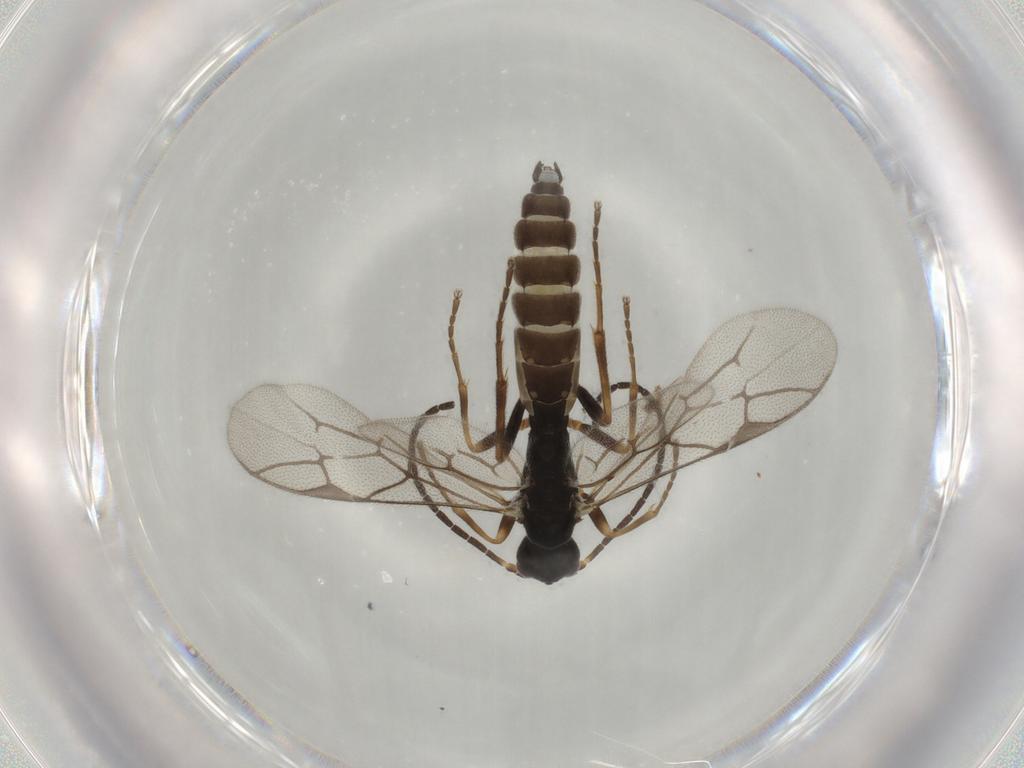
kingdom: Animalia
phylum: Arthropoda
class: Insecta
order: Hymenoptera
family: Ichneumonidae
